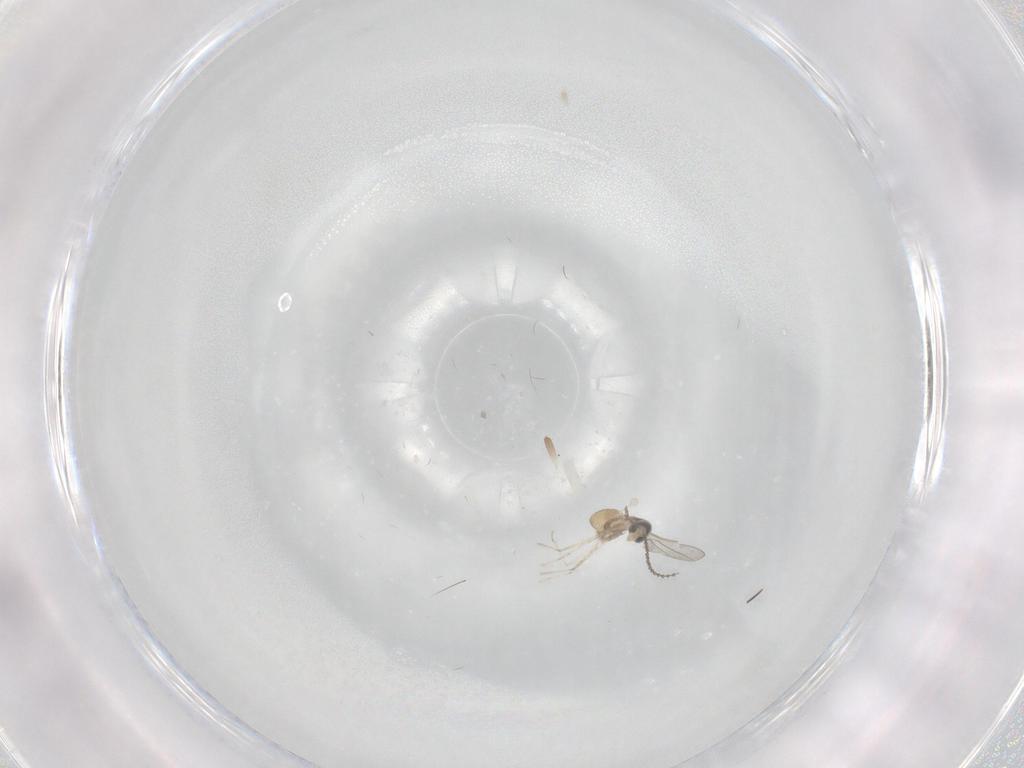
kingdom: Animalia
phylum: Arthropoda
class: Insecta
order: Diptera
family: Cecidomyiidae
